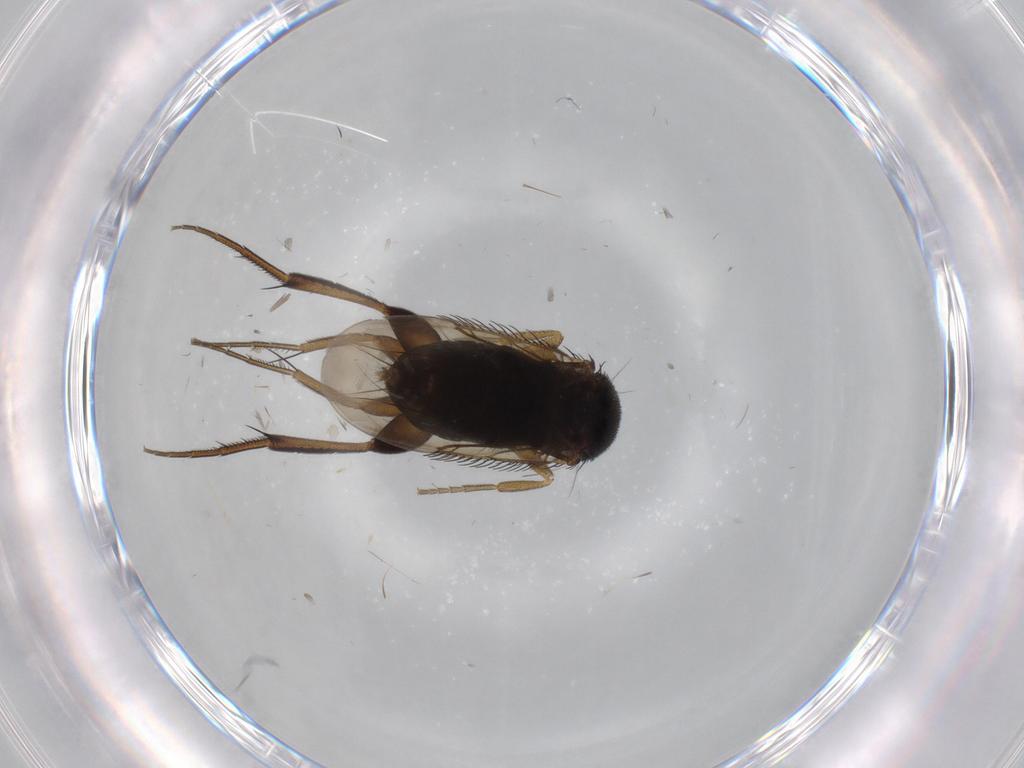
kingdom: Animalia
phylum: Arthropoda
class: Insecta
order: Diptera
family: Phoridae
